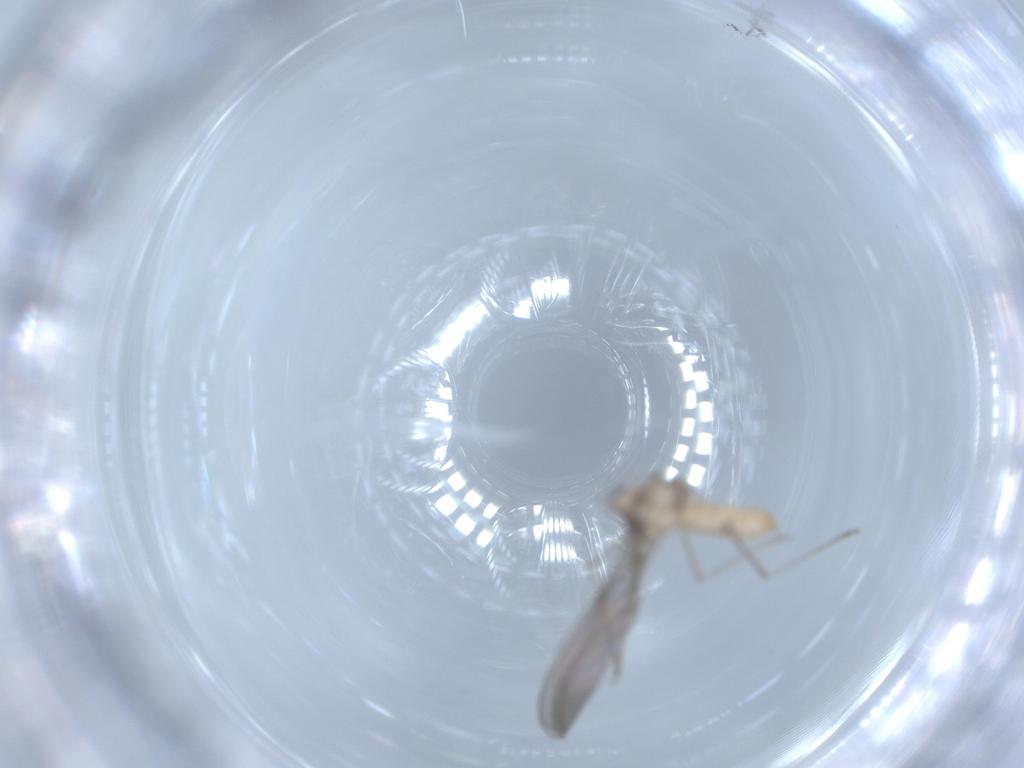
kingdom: Animalia
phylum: Arthropoda
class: Insecta
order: Diptera
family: Cecidomyiidae
